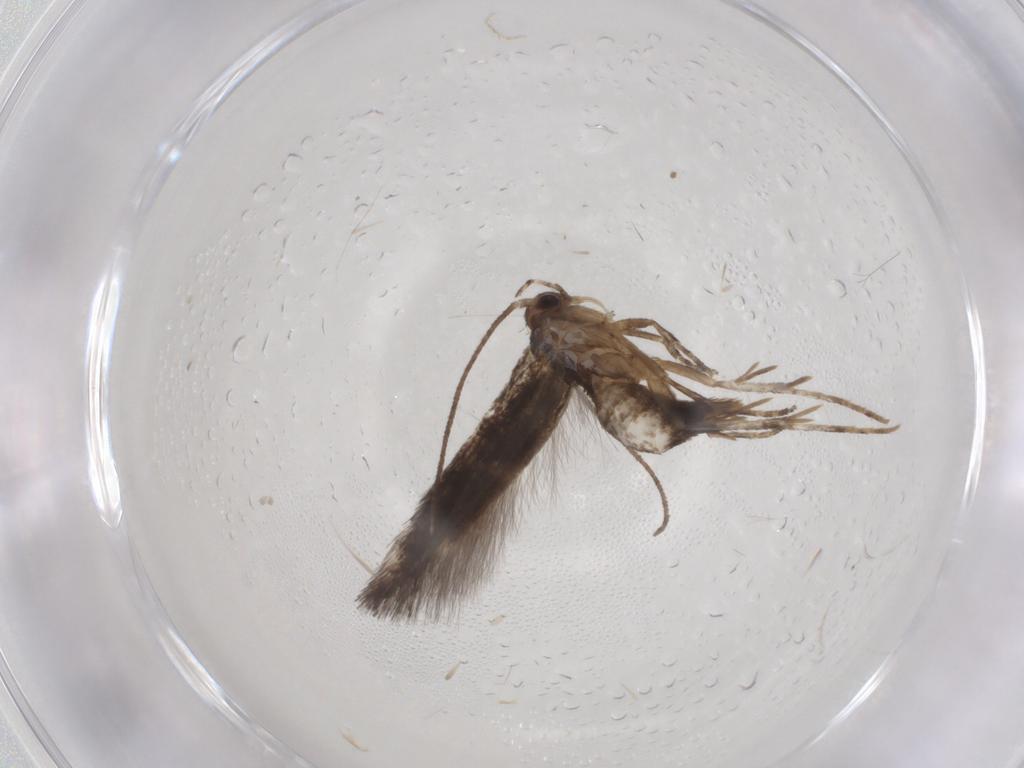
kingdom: Animalia
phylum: Arthropoda
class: Insecta
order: Lepidoptera
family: Elachistidae
